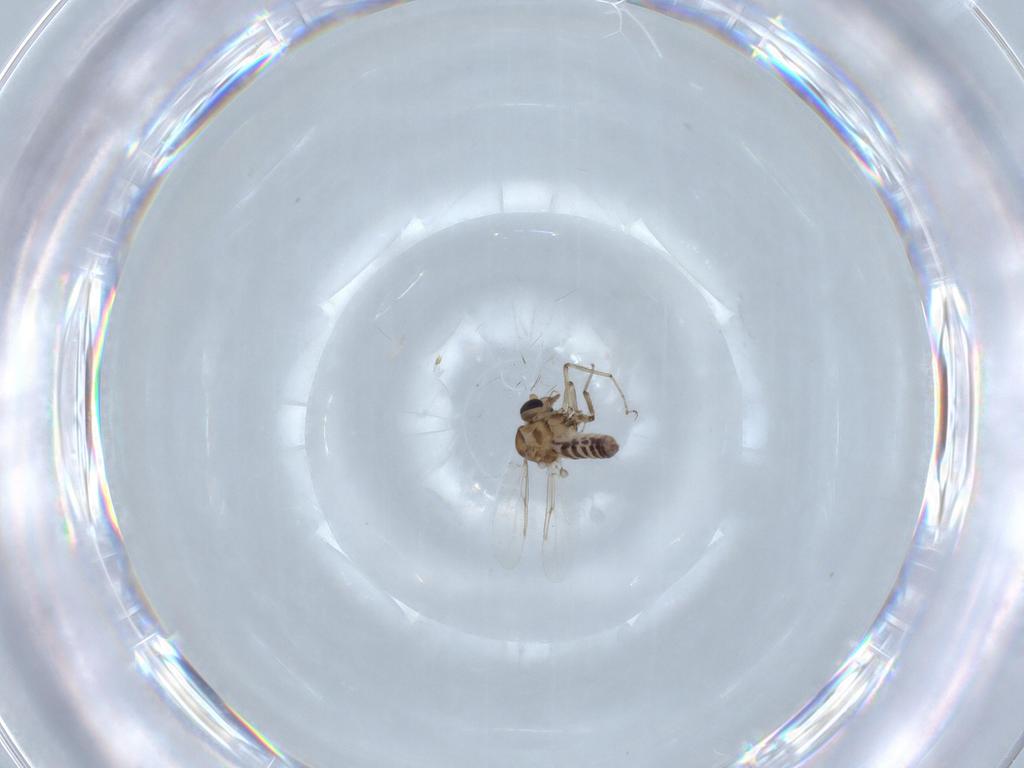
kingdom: Animalia
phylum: Arthropoda
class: Insecta
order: Diptera
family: Ceratopogonidae
